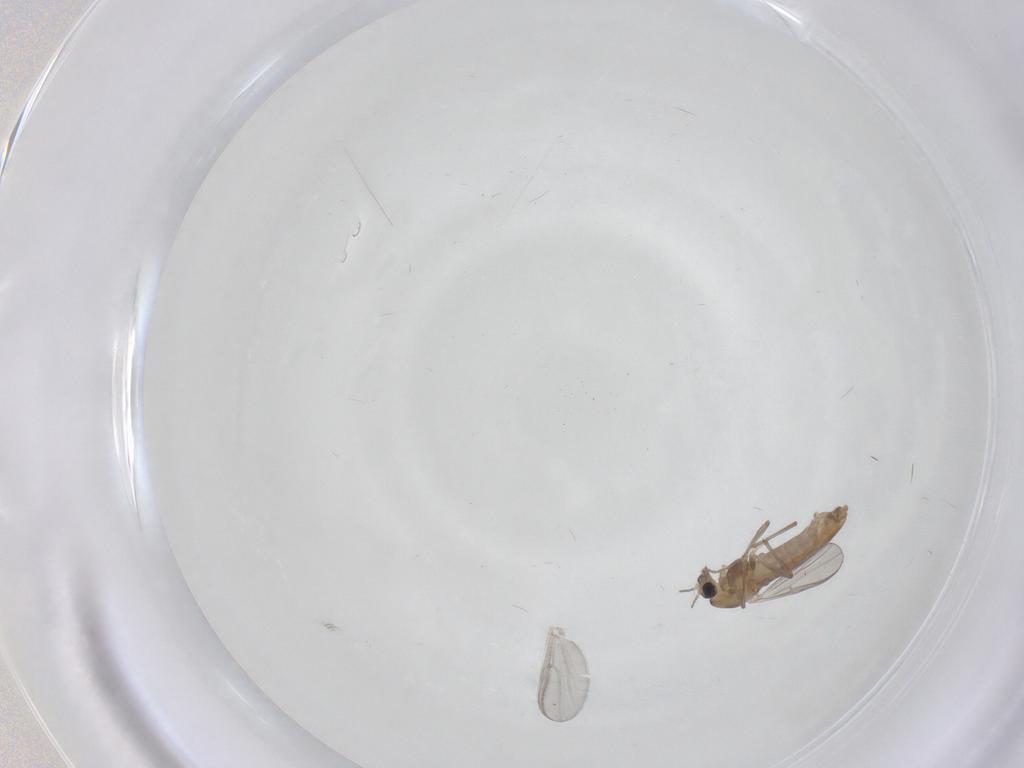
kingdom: Animalia
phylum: Arthropoda
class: Insecta
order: Diptera
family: Chironomidae
